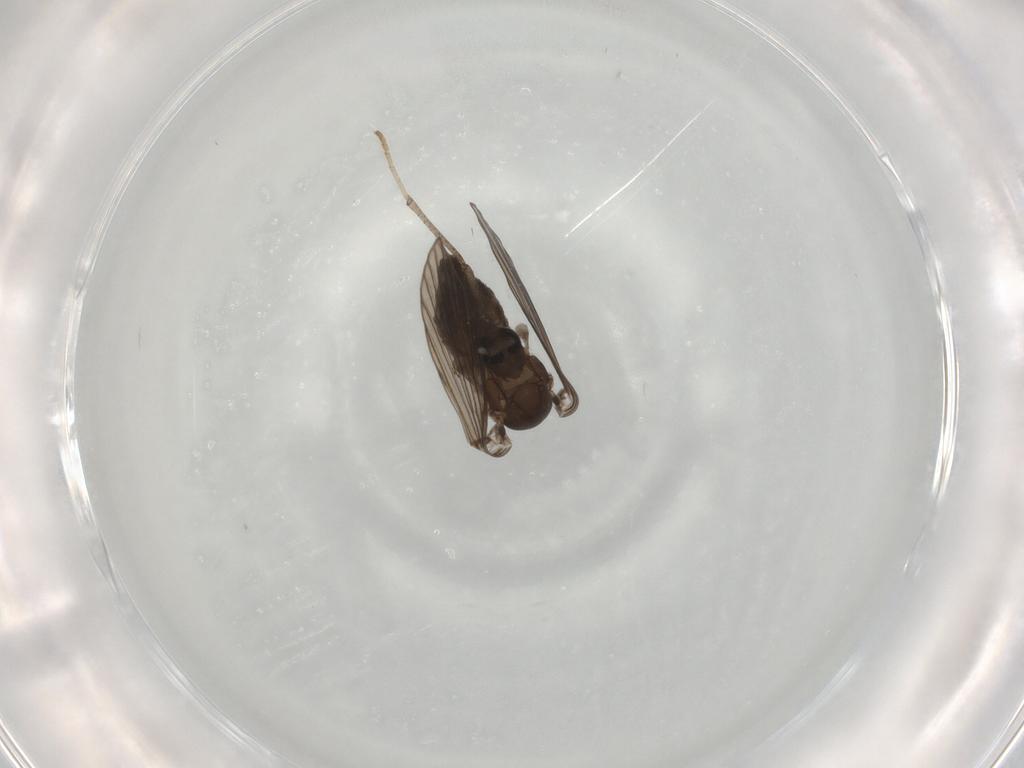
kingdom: Animalia
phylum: Arthropoda
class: Insecta
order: Diptera
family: Psychodidae
